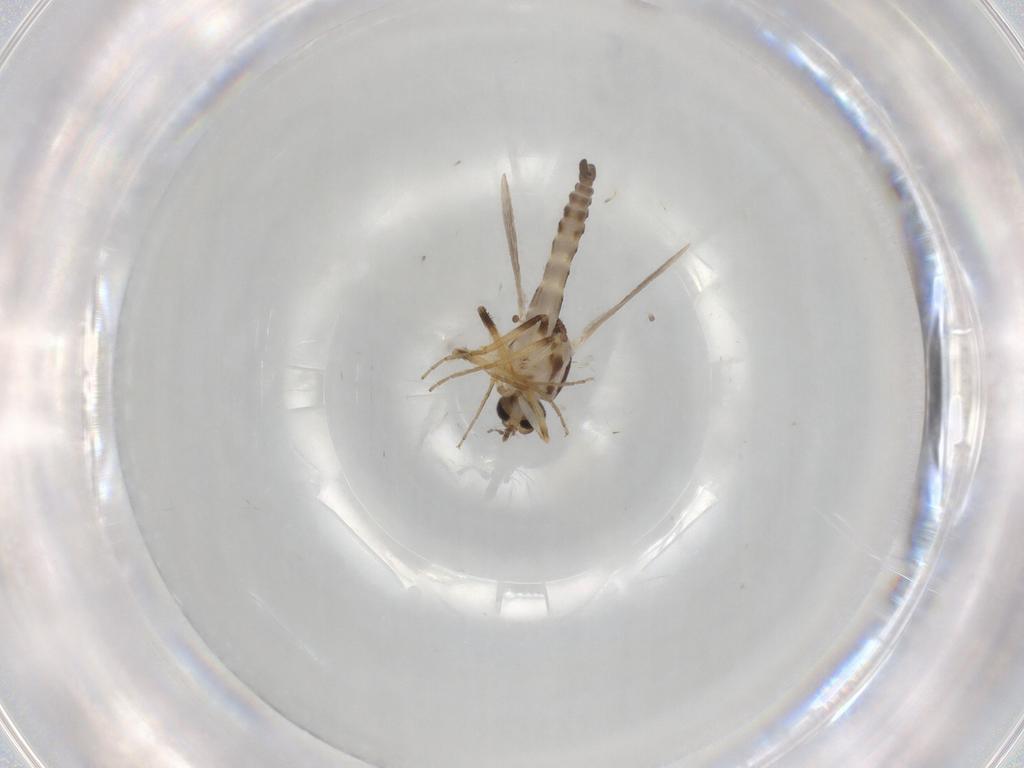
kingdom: Animalia
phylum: Arthropoda
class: Insecta
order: Diptera
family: Ceratopogonidae
